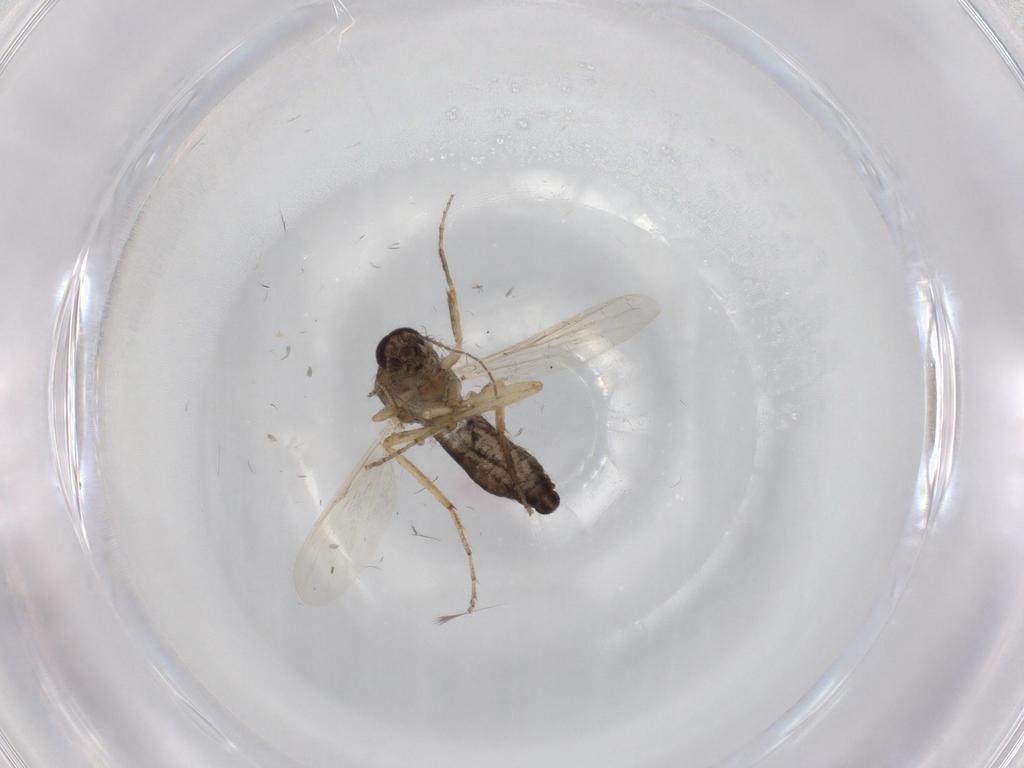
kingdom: Animalia
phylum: Arthropoda
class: Insecta
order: Diptera
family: Ceratopogonidae
